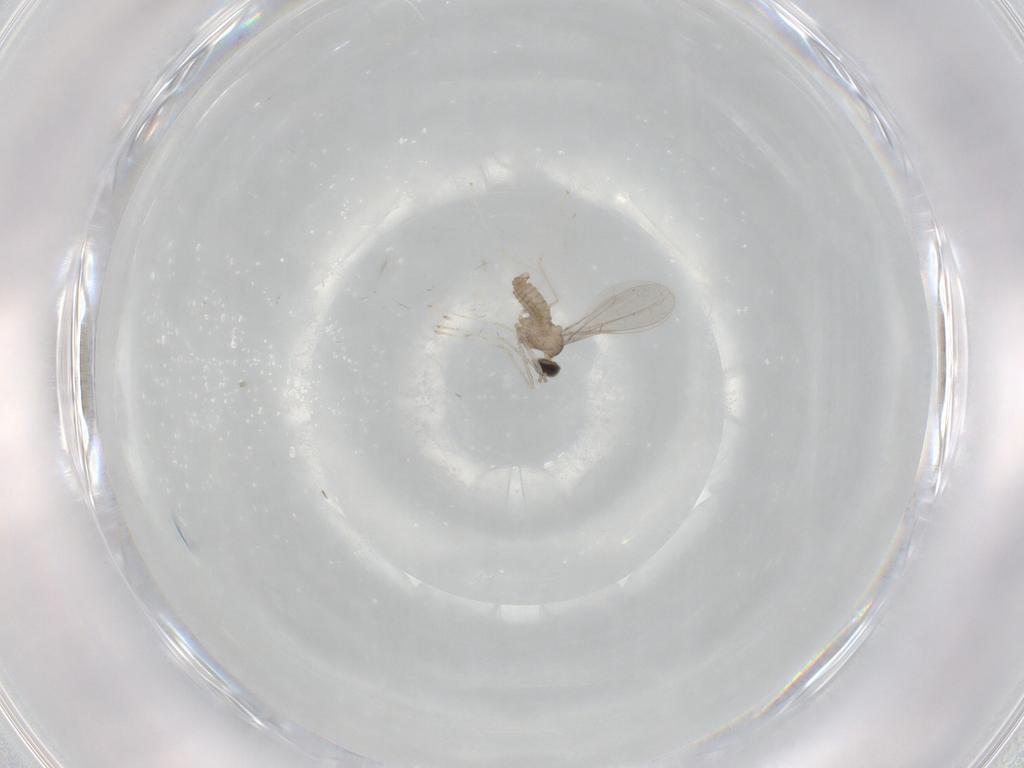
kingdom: Animalia
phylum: Arthropoda
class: Insecta
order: Diptera
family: Cecidomyiidae
